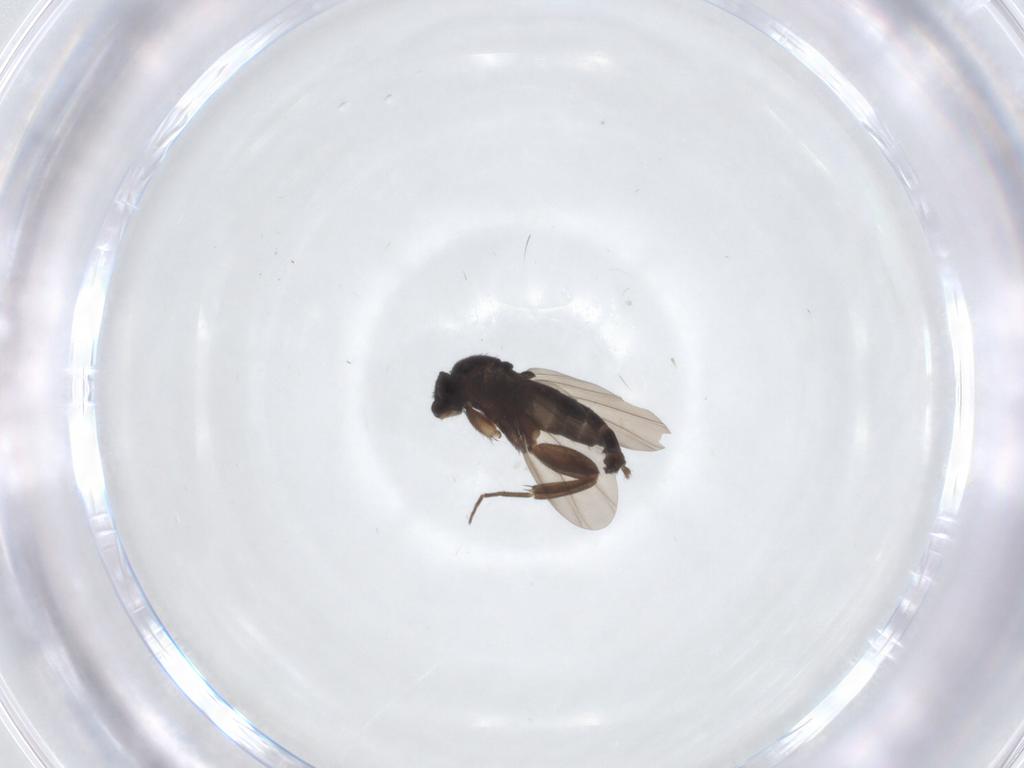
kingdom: Animalia
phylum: Arthropoda
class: Insecta
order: Diptera
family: Phoridae
